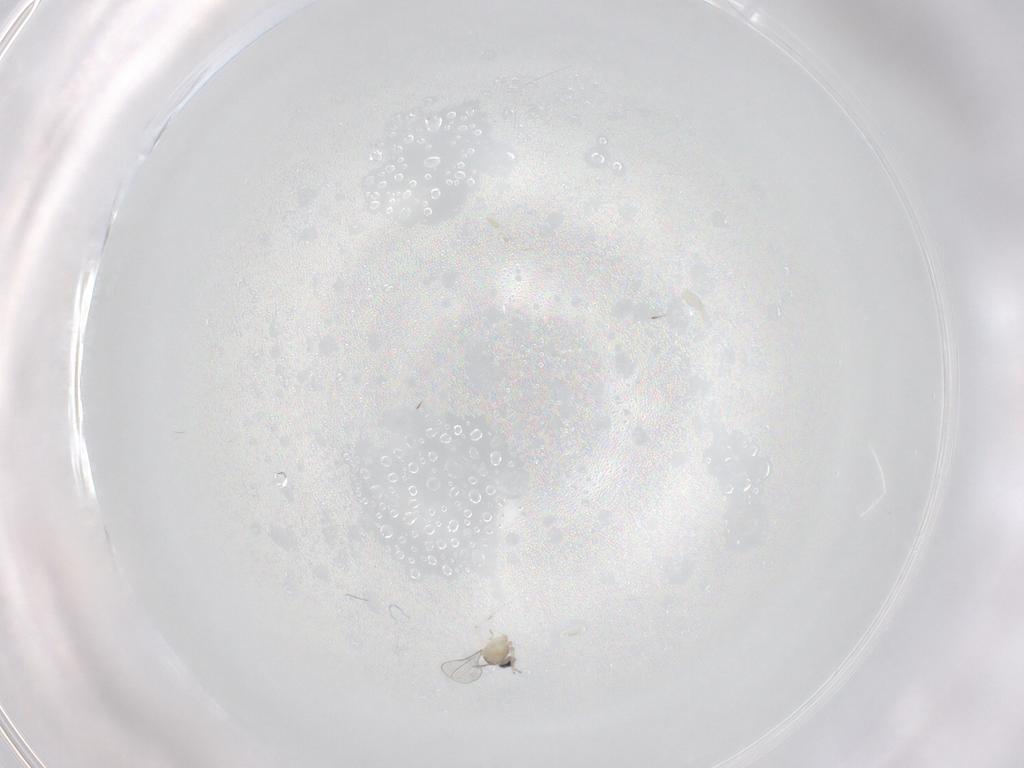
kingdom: Animalia
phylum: Arthropoda
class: Insecta
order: Diptera
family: Cecidomyiidae
